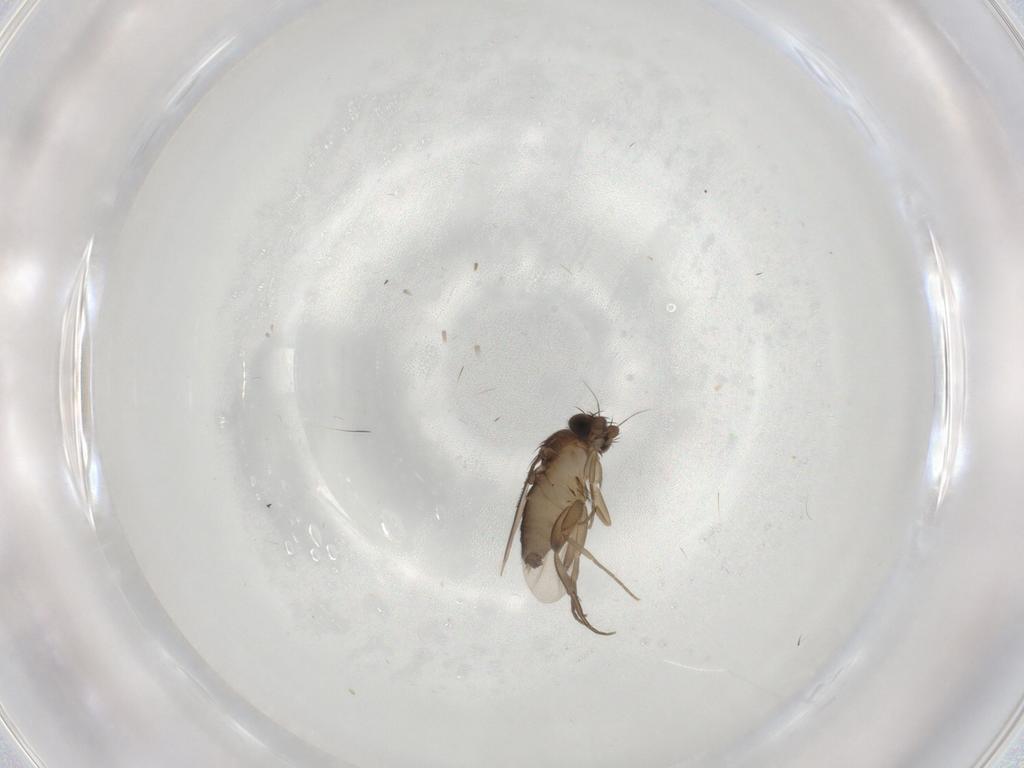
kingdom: Animalia
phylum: Arthropoda
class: Insecta
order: Diptera
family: Phoridae
